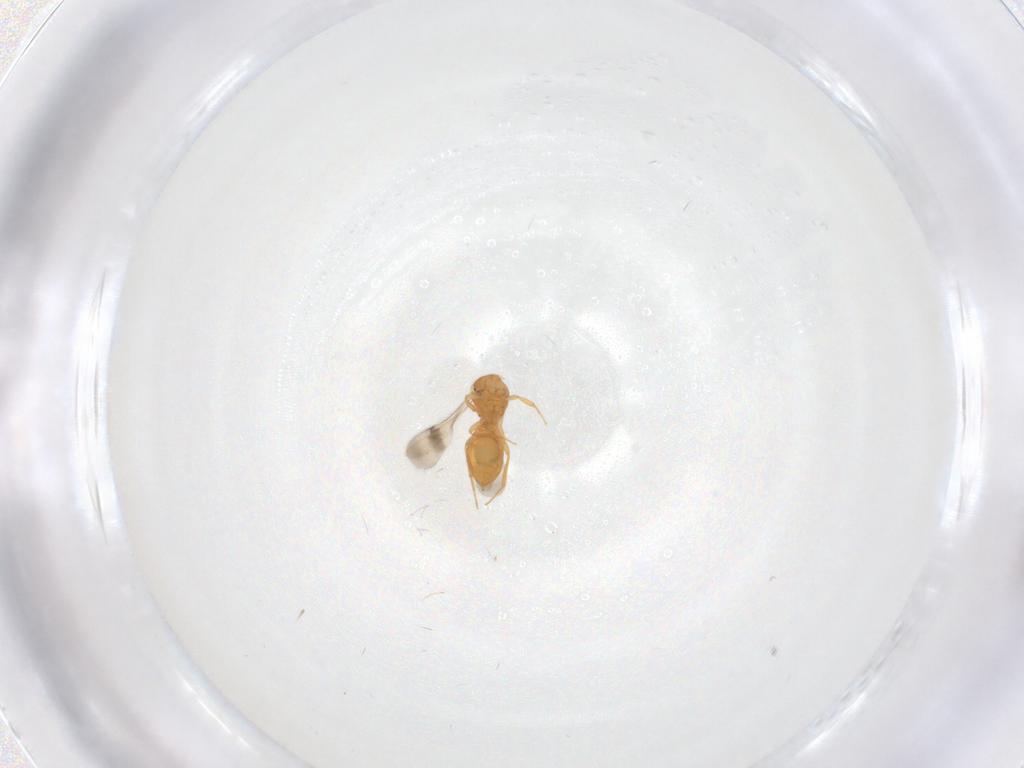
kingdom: Animalia
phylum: Arthropoda
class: Insecta
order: Hymenoptera
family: Scelionidae
